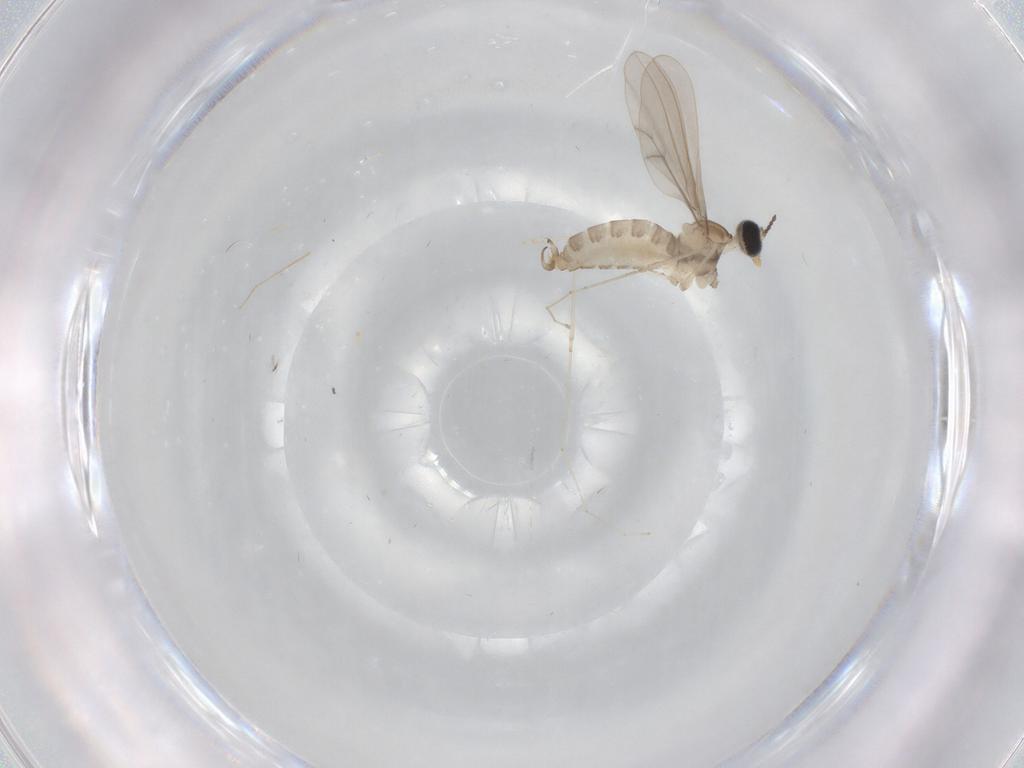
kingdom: Animalia
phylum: Arthropoda
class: Insecta
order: Diptera
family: Cecidomyiidae
